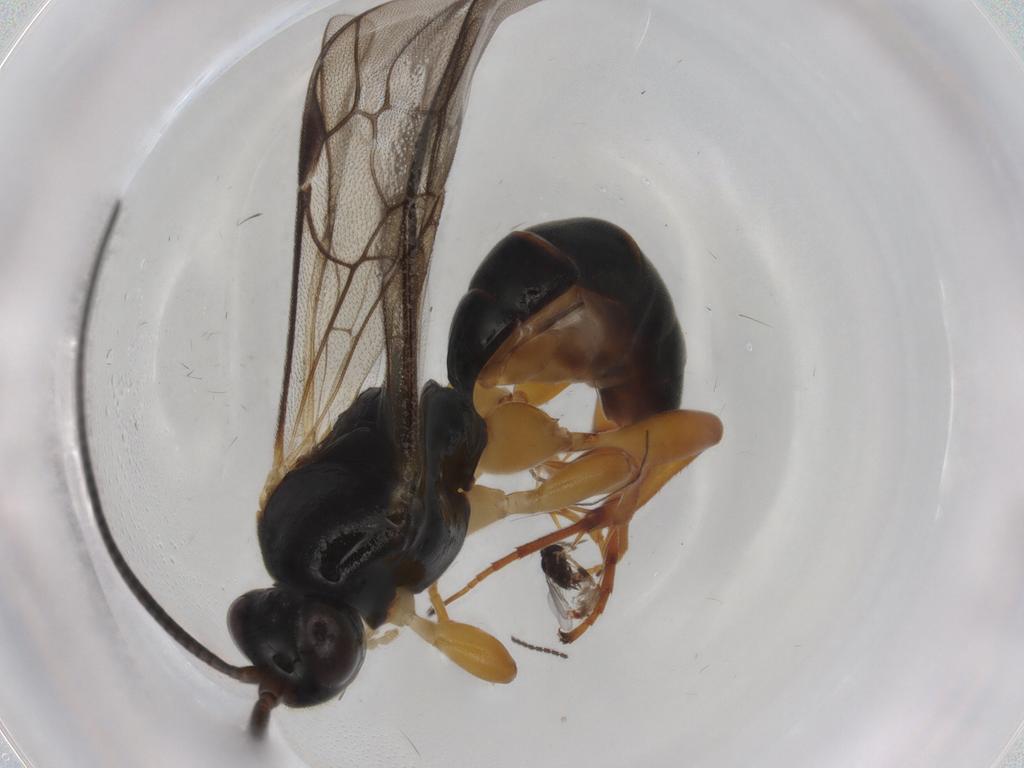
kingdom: Animalia
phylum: Arthropoda
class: Insecta
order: Hymenoptera
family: Ichneumonidae
